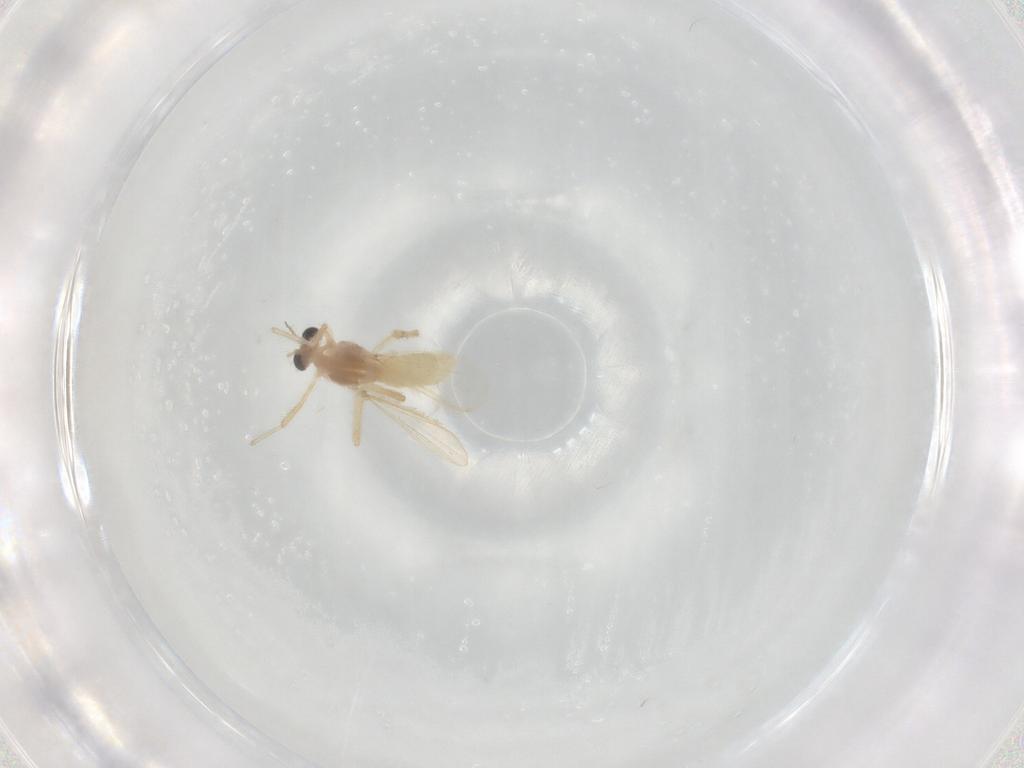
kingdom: Animalia
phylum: Arthropoda
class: Insecta
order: Diptera
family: Chironomidae
